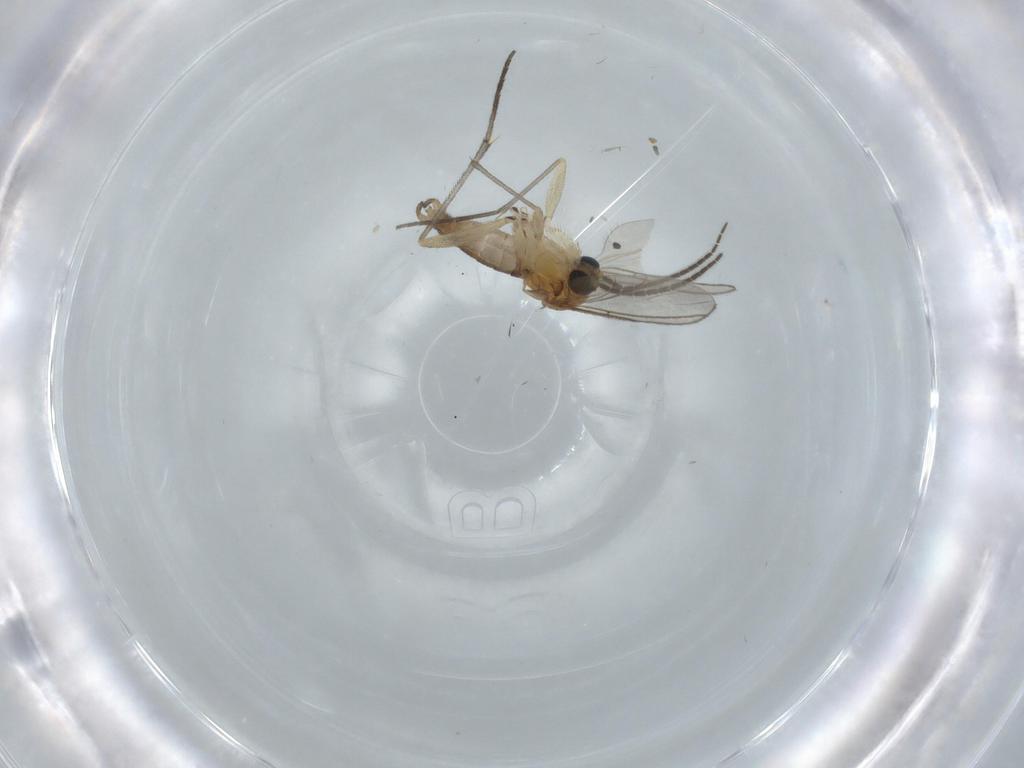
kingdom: Animalia
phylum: Arthropoda
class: Insecta
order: Diptera
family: Sciaridae
